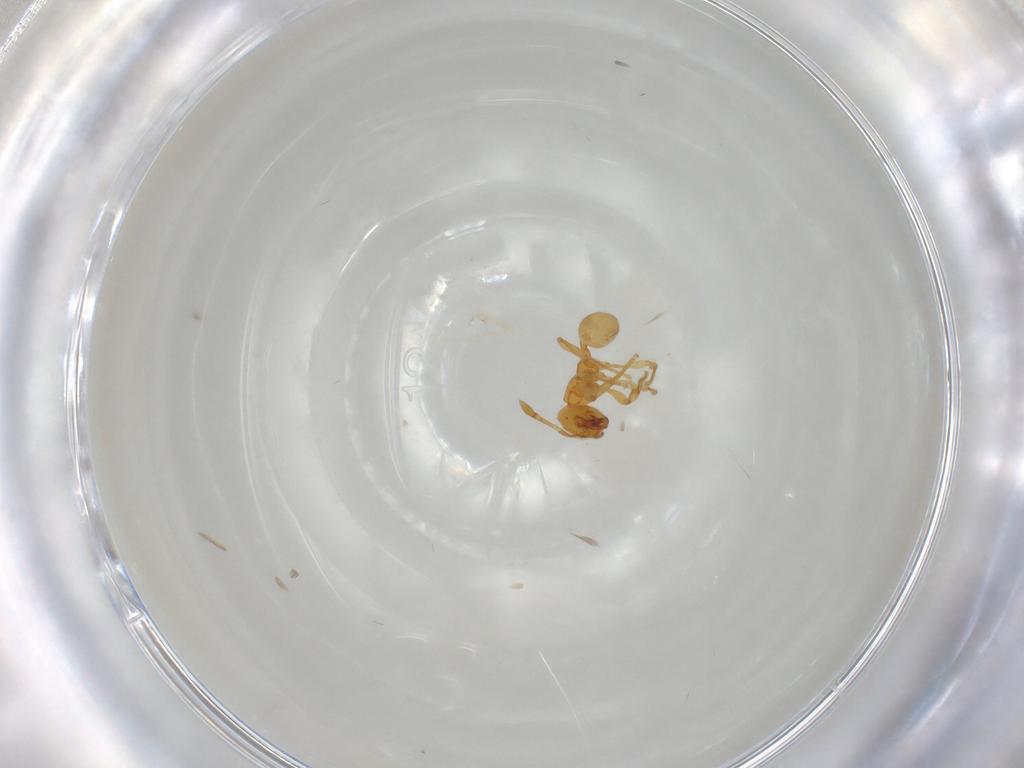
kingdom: Animalia
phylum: Arthropoda
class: Insecta
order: Hymenoptera
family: Formicidae
